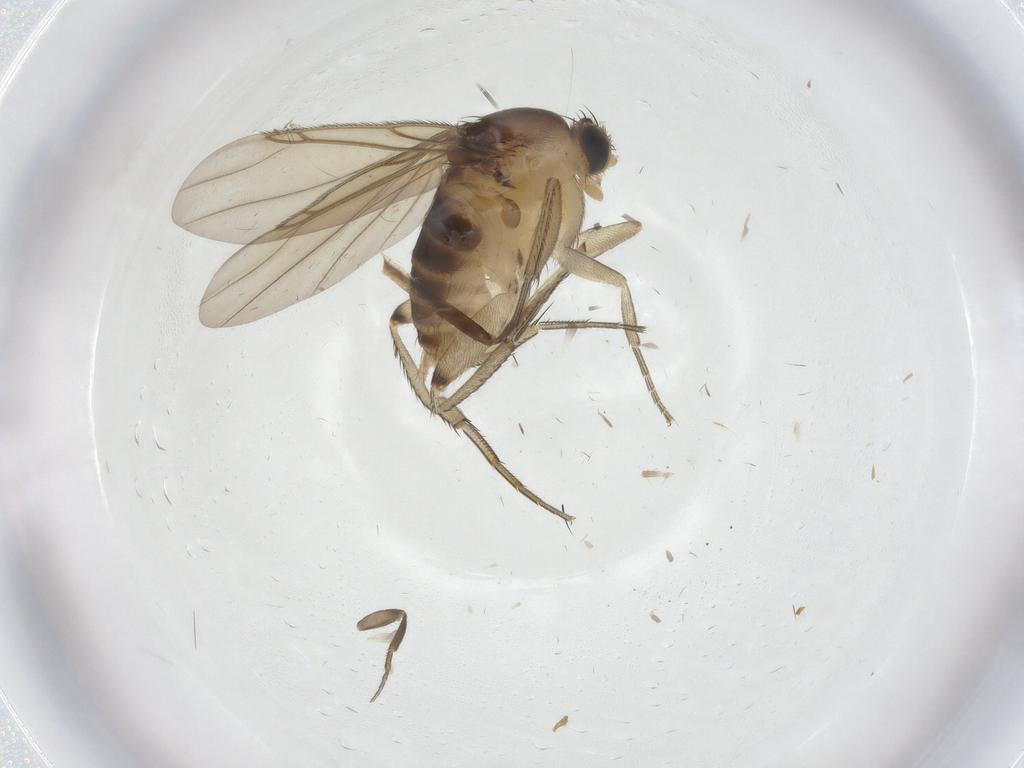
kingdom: Animalia
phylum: Arthropoda
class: Insecta
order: Diptera
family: Phoridae
